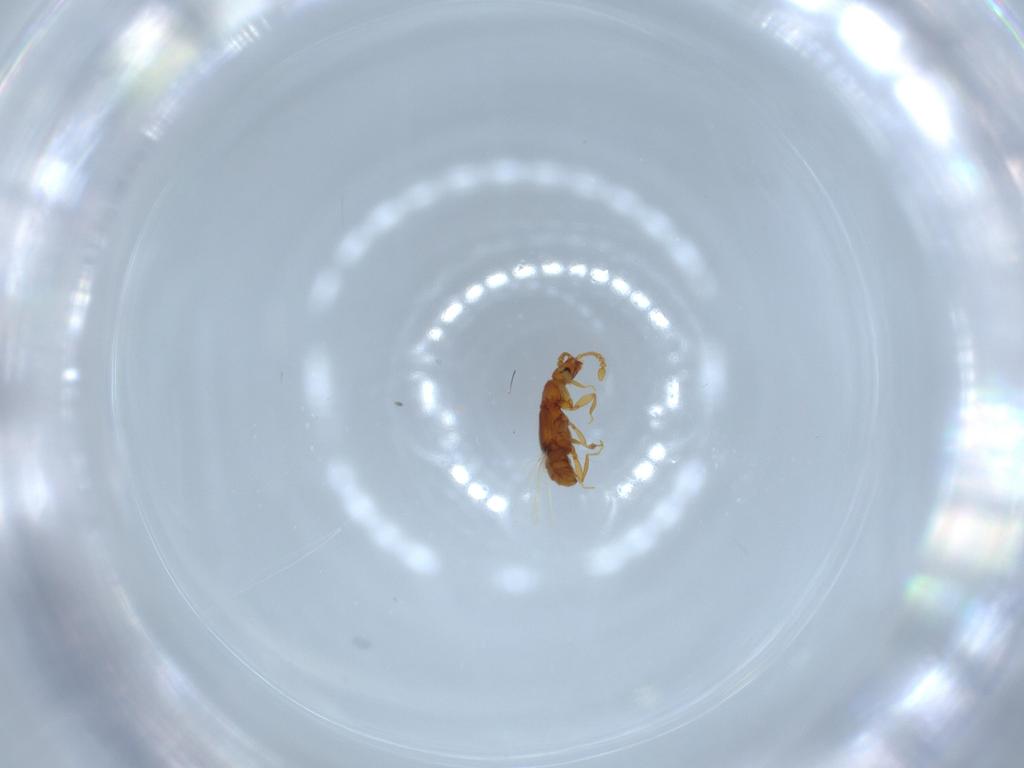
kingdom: Animalia
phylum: Arthropoda
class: Insecta
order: Coleoptera
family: Staphylinidae
